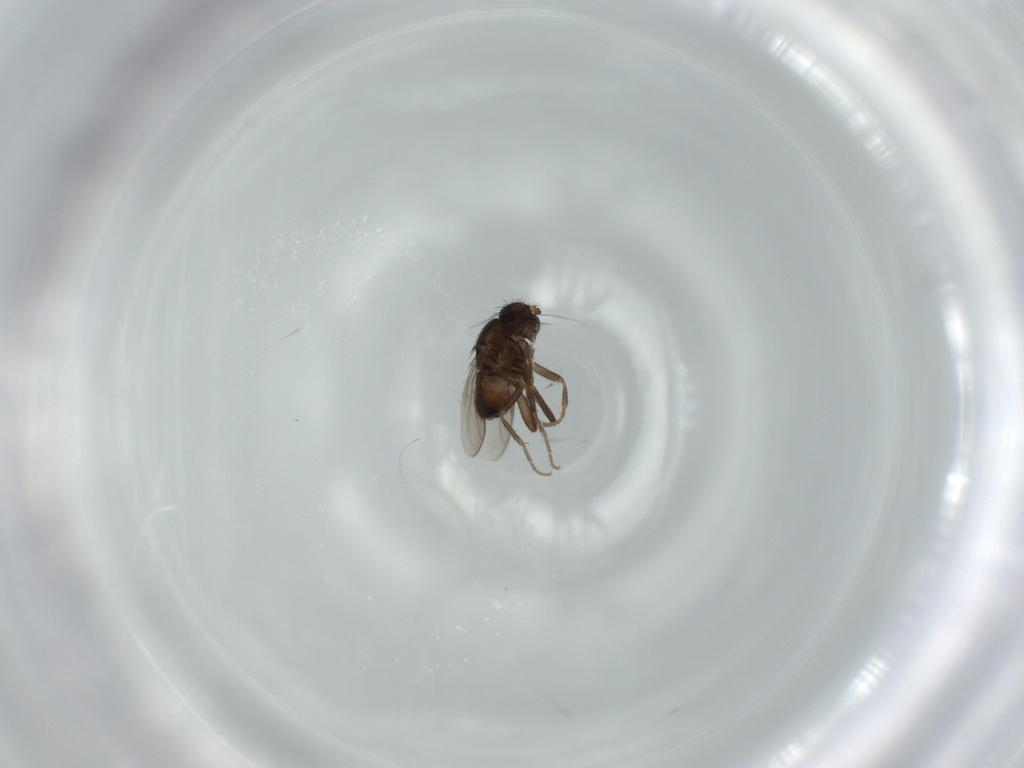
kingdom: Animalia
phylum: Arthropoda
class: Insecta
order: Diptera
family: Sphaeroceridae
